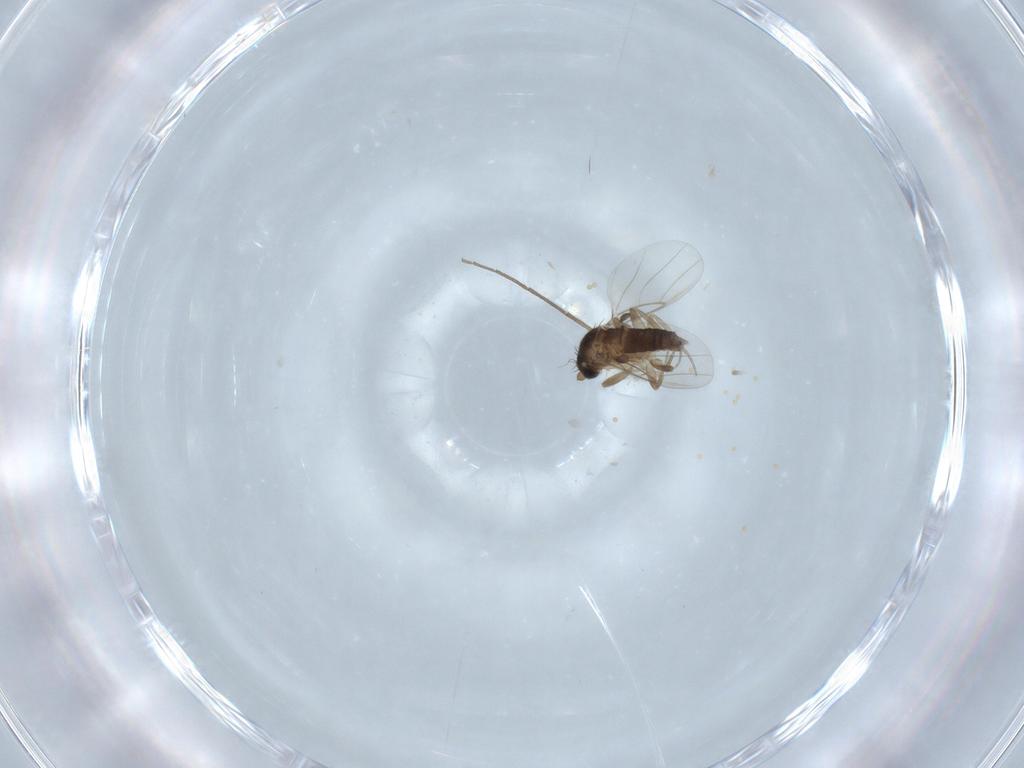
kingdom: Animalia
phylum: Arthropoda
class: Insecta
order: Diptera
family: Phoridae
